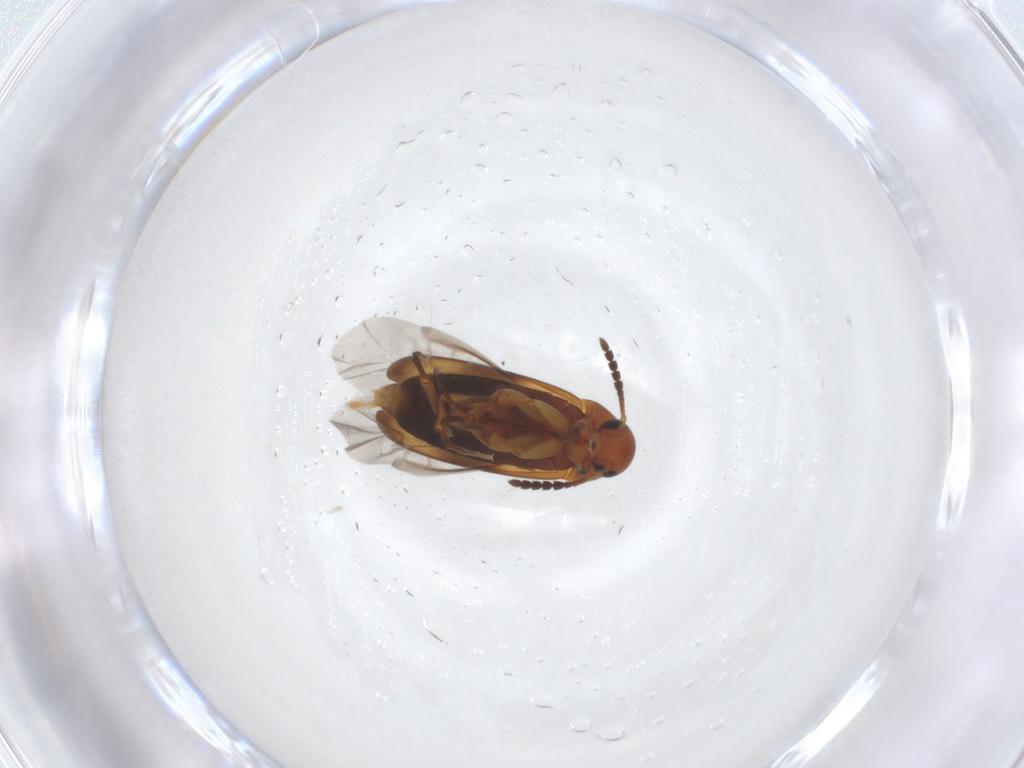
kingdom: Animalia
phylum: Arthropoda
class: Insecta
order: Coleoptera
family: Scraptiidae
